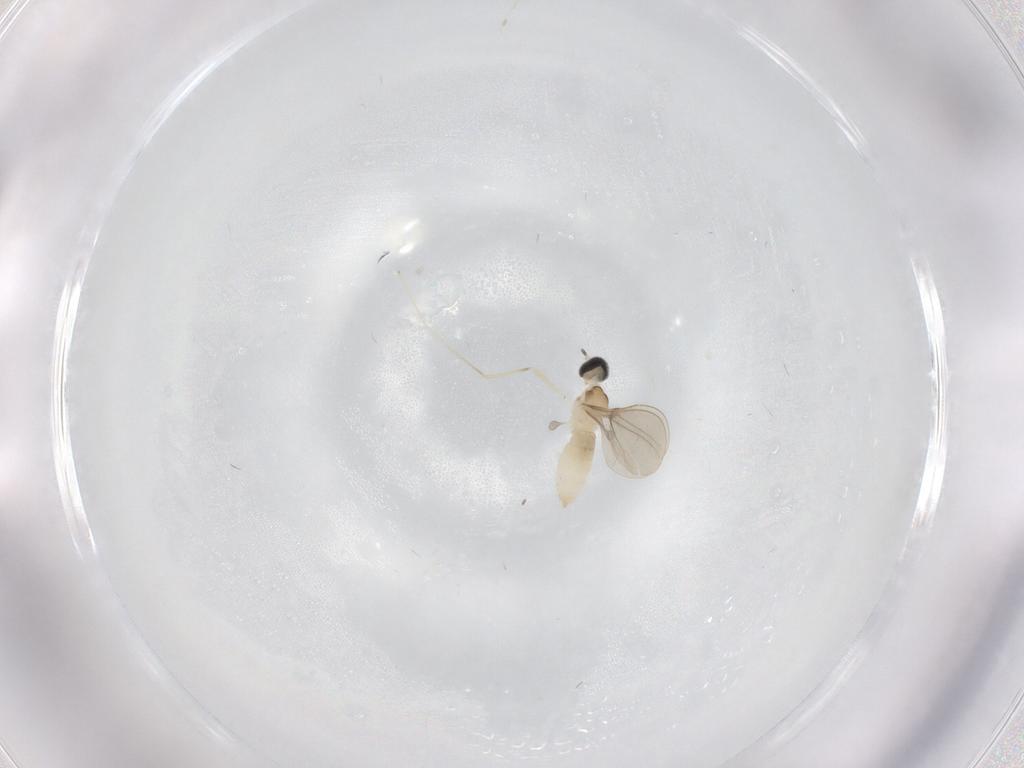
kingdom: Animalia
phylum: Arthropoda
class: Insecta
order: Diptera
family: Cecidomyiidae
